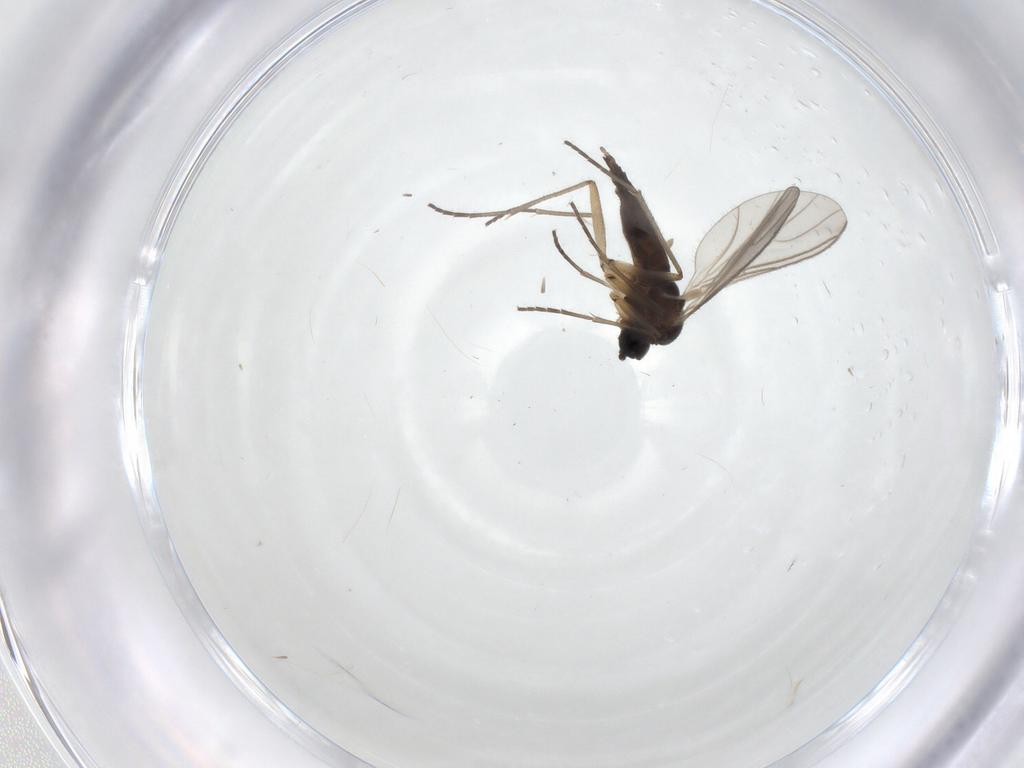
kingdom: Animalia
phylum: Arthropoda
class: Insecta
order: Diptera
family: Sciaridae
